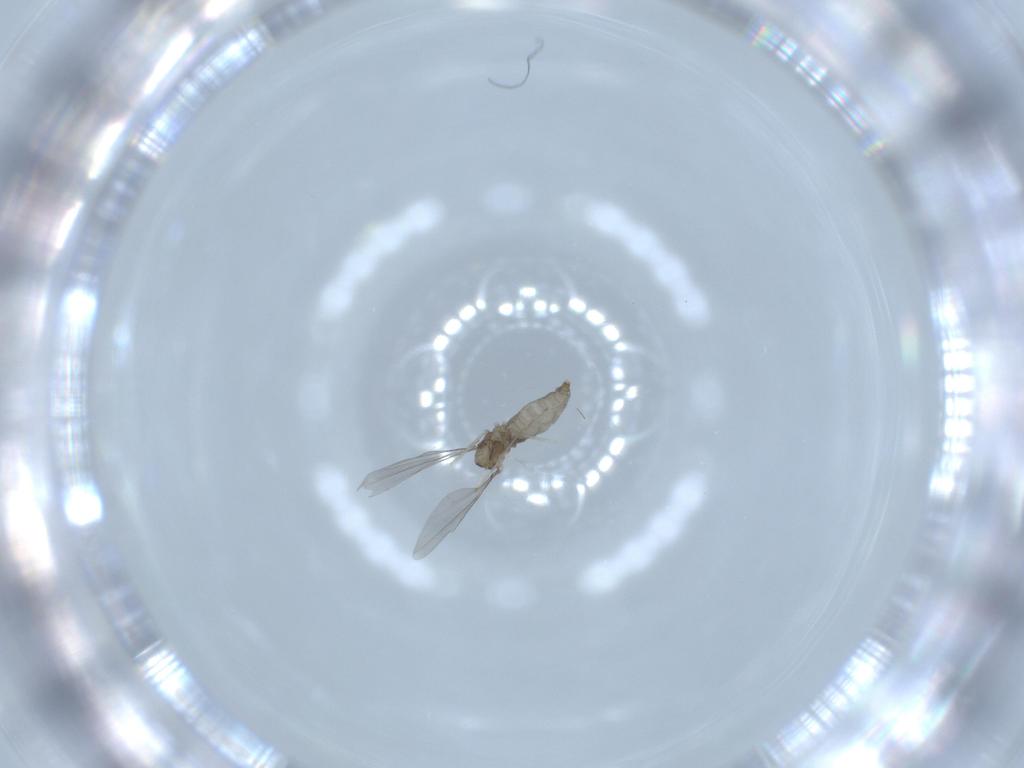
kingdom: Animalia
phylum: Arthropoda
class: Insecta
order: Diptera
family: Cecidomyiidae
